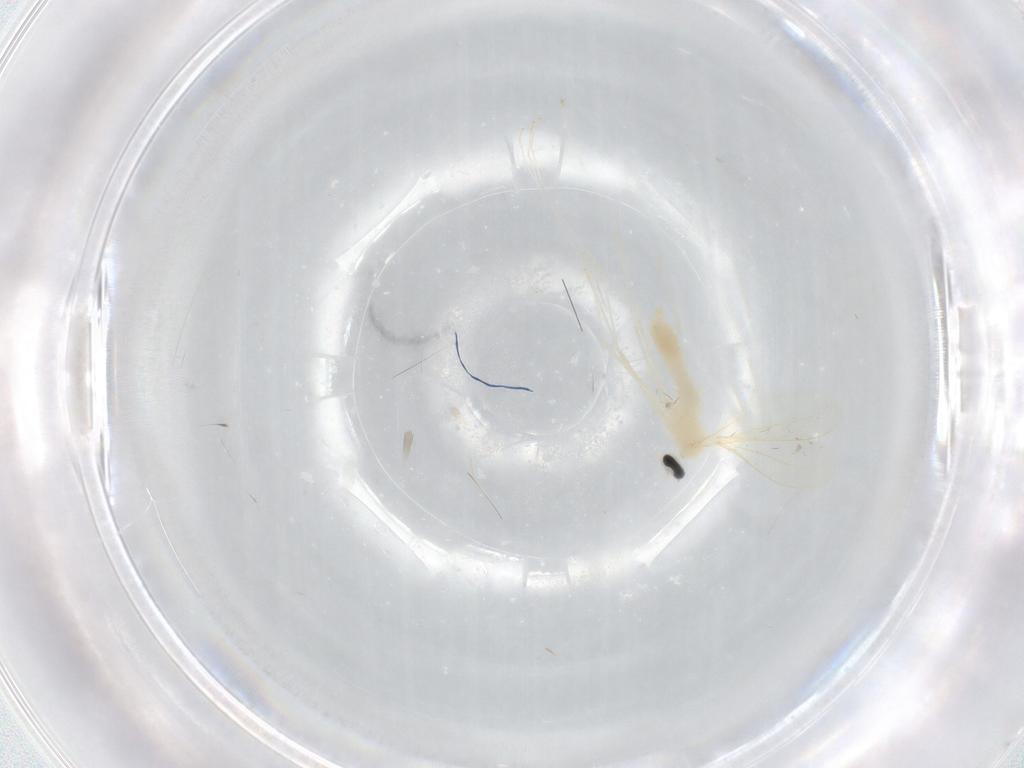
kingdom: Animalia
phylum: Arthropoda
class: Insecta
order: Diptera
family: Cecidomyiidae
